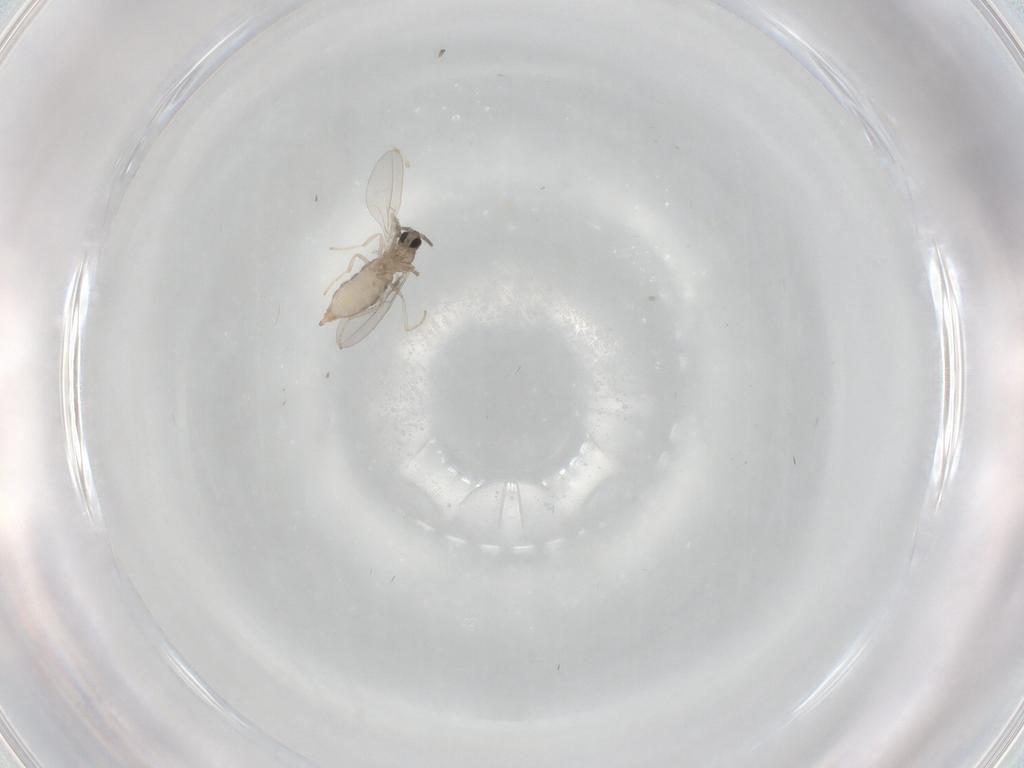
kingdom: Animalia
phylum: Arthropoda
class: Insecta
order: Diptera
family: Cecidomyiidae
